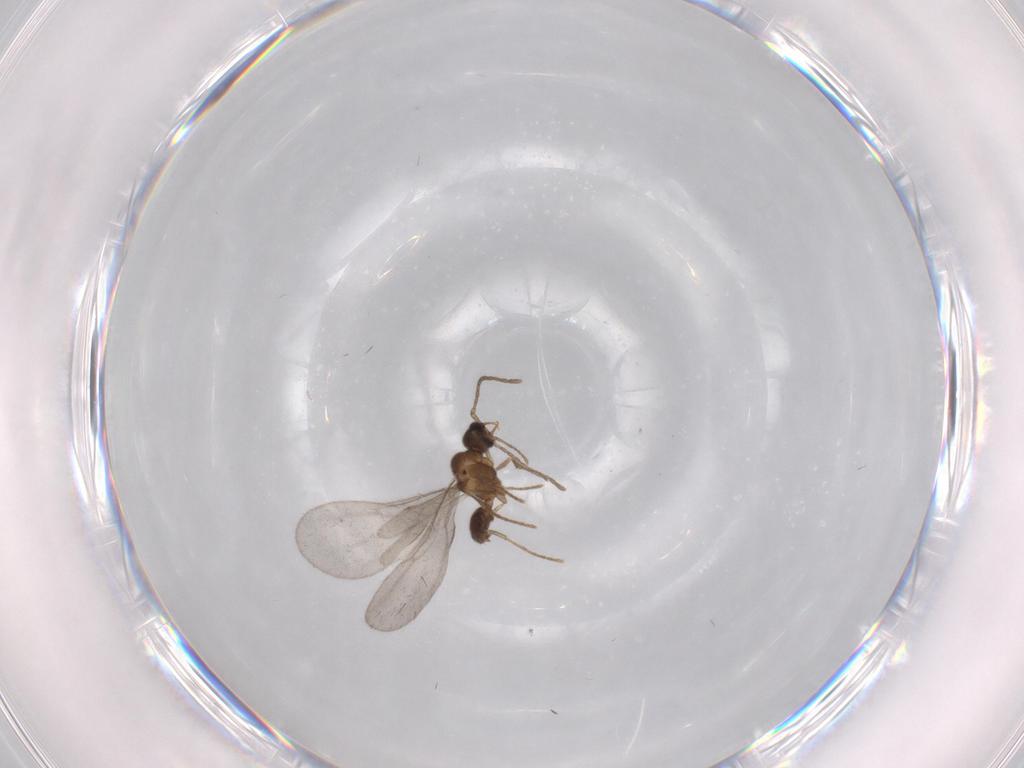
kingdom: Animalia
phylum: Arthropoda
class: Insecta
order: Hymenoptera
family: Formicidae
